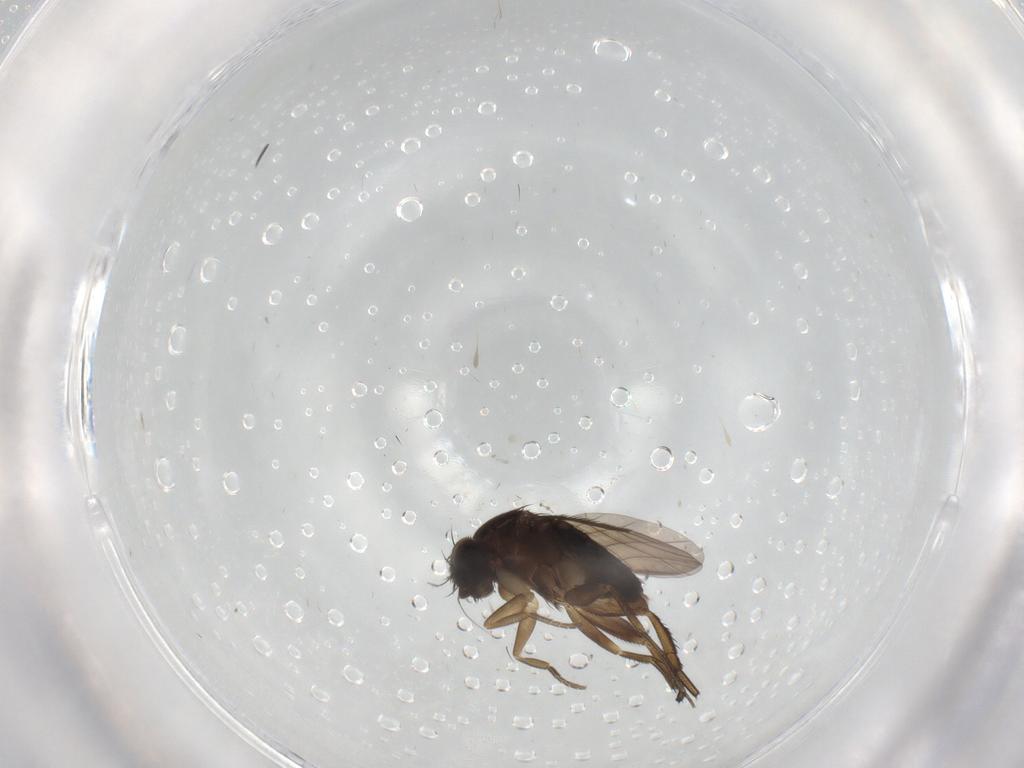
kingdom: Animalia
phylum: Arthropoda
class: Insecta
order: Diptera
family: Phoridae
